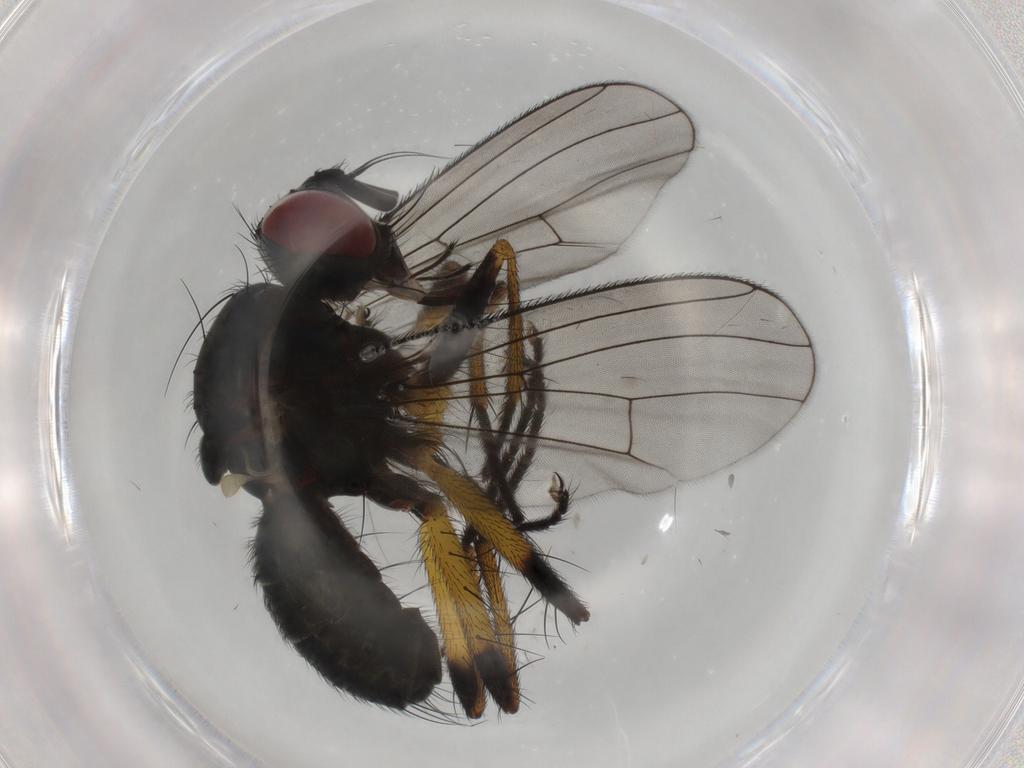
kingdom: Animalia
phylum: Arthropoda
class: Insecta
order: Diptera
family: Muscidae
